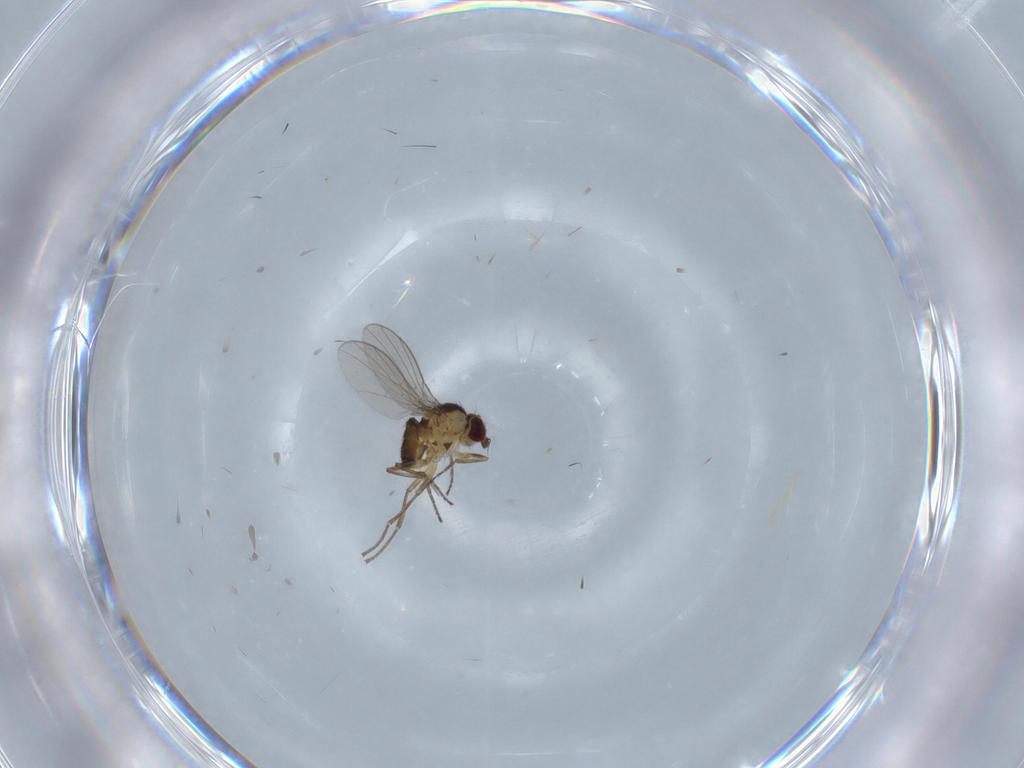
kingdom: Animalia
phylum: Arthropoda
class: Insecta
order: Diptera
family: Agromyzidae
